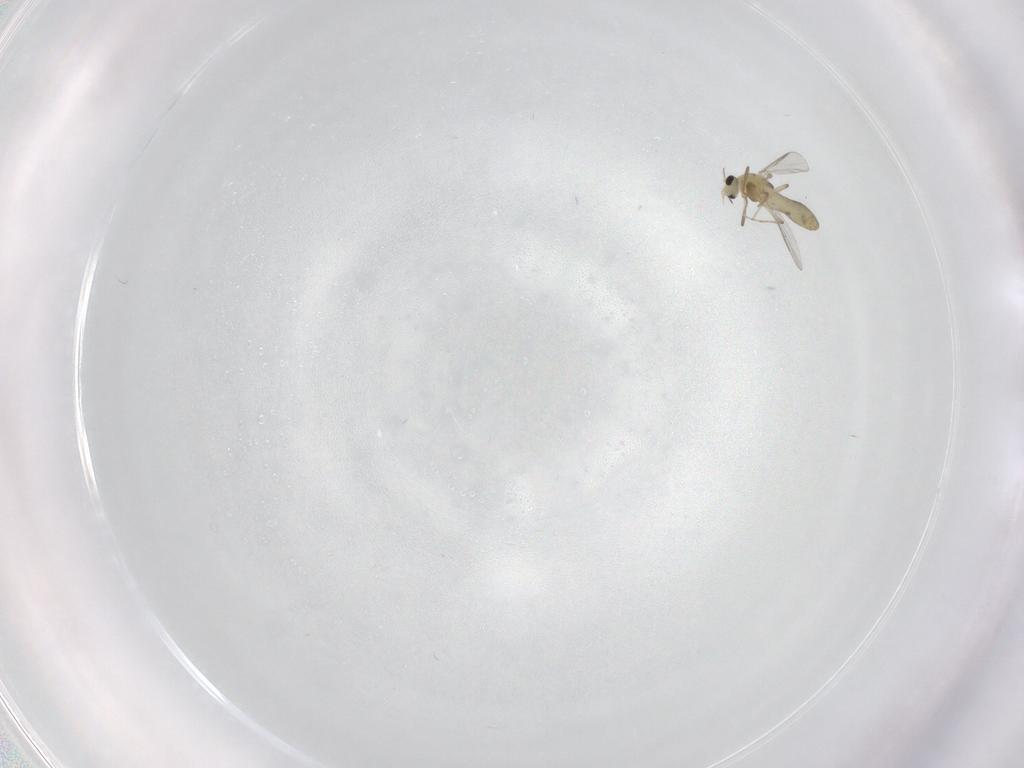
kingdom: Animalia
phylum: Arthropoda
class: Insecta
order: Diptera
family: Chironomidae
